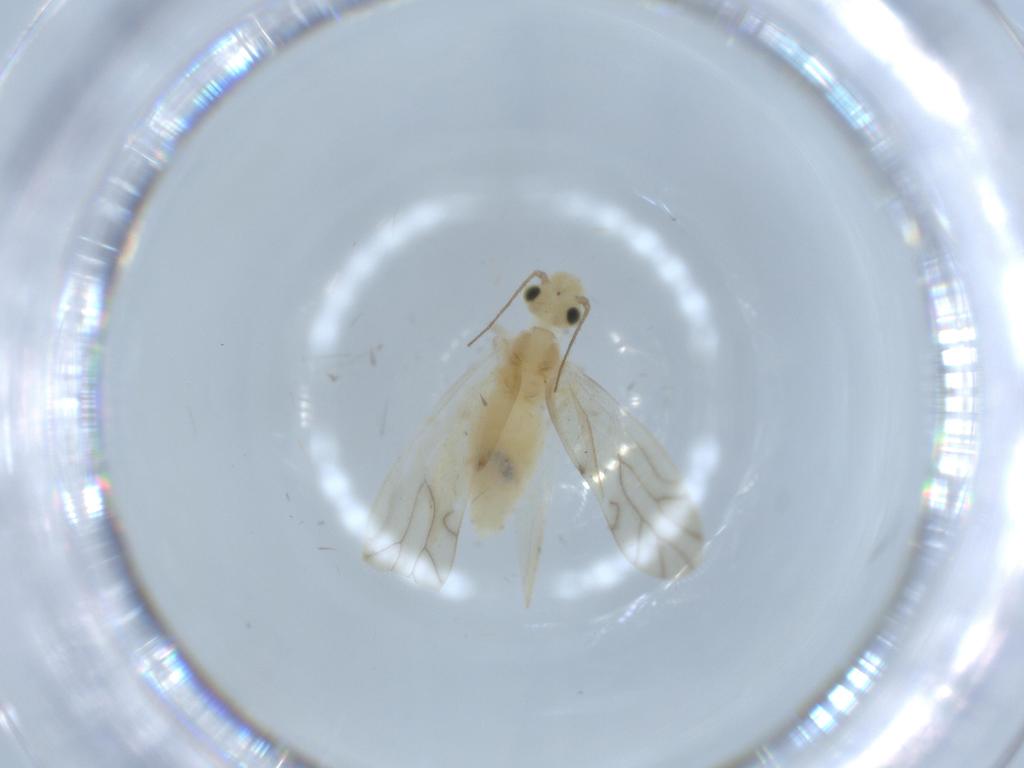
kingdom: Animalia
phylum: Arthropoda
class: Insecta
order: Psocodea
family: Caeciliusidae
